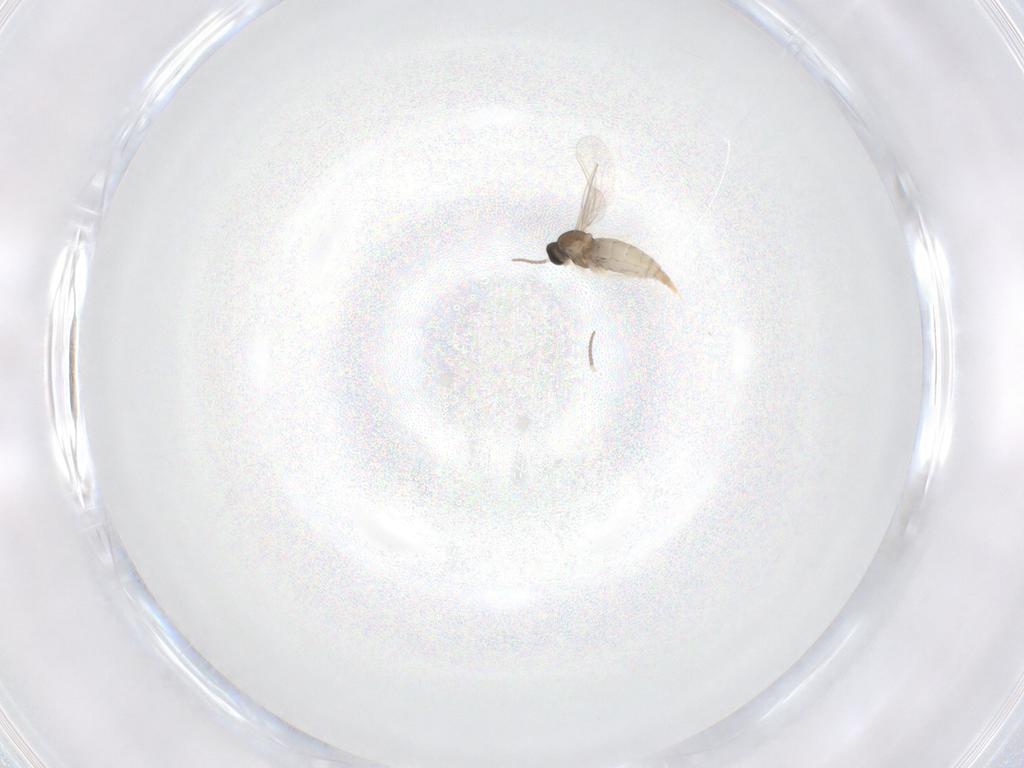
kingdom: Animalia
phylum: Arthropoda
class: Insecta
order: Diptera
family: Cecidomyiidae
